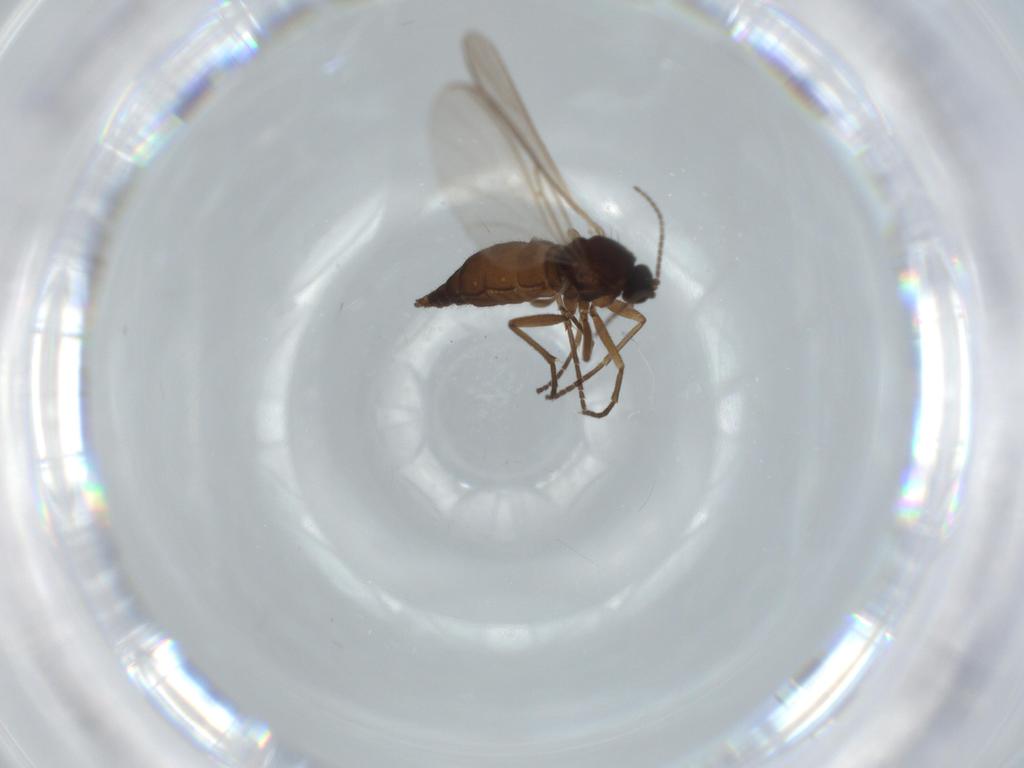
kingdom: Animalia
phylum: Arthropoda
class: Insecta
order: Diptera
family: Sciaridae
